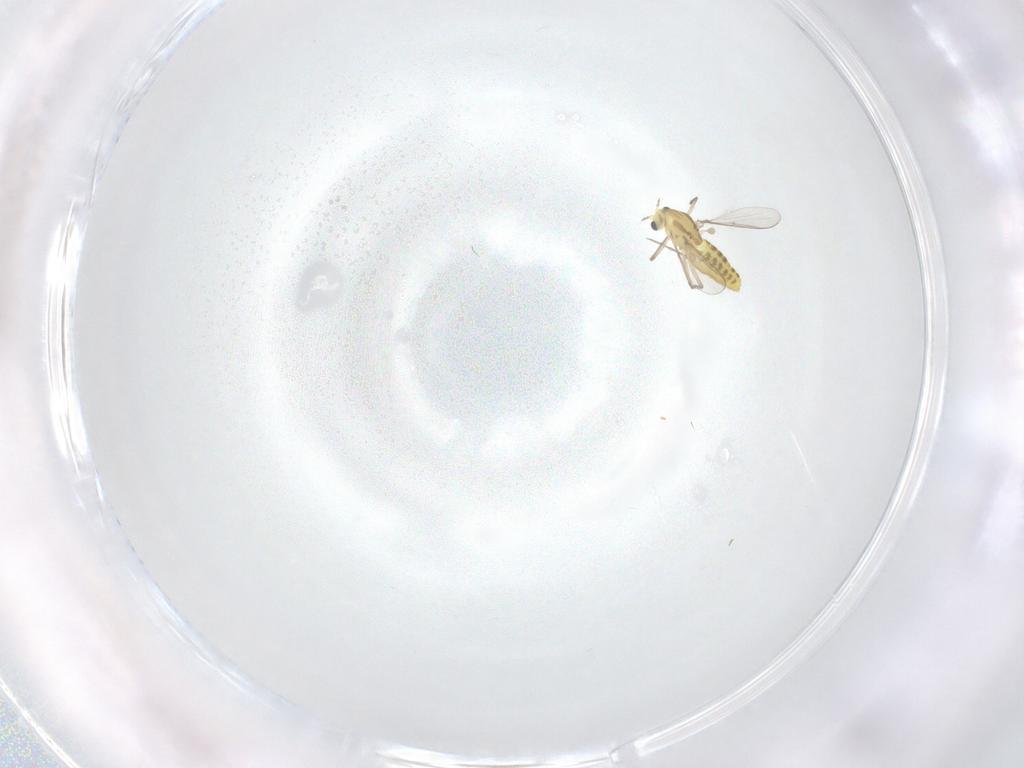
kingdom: Animalia
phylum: Arthropoda
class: Insecta
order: Diptera
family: Chironomidae
